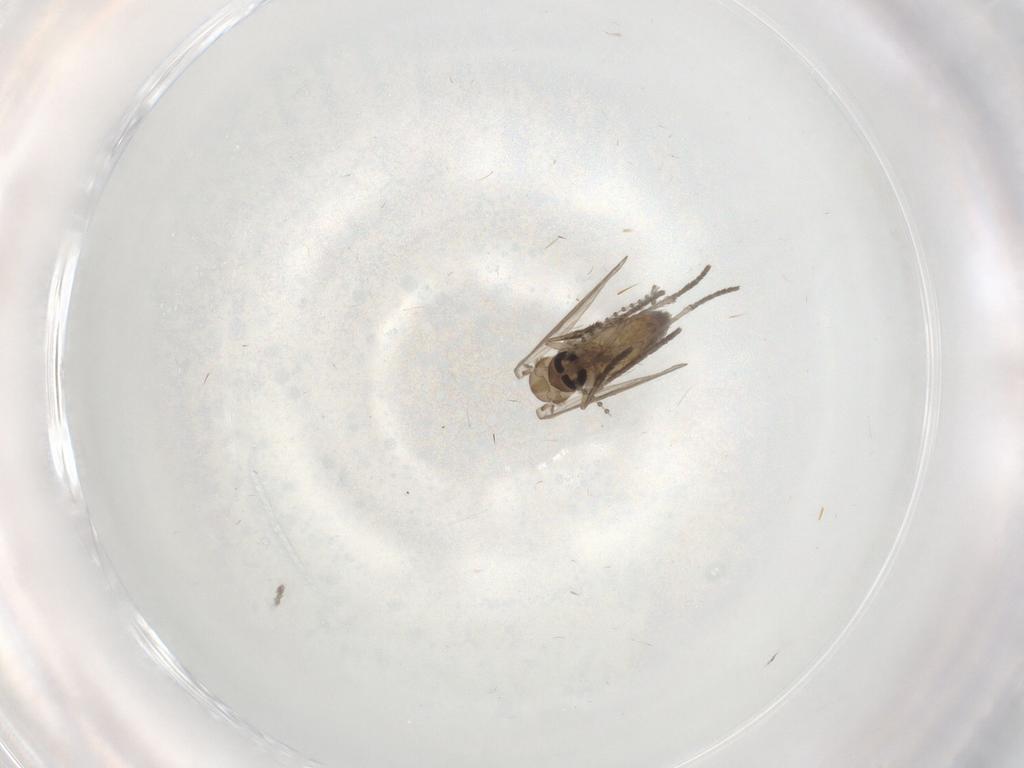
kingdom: Animalia
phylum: Arthropoda
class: Insecta
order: Diptera
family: Psychodidae
